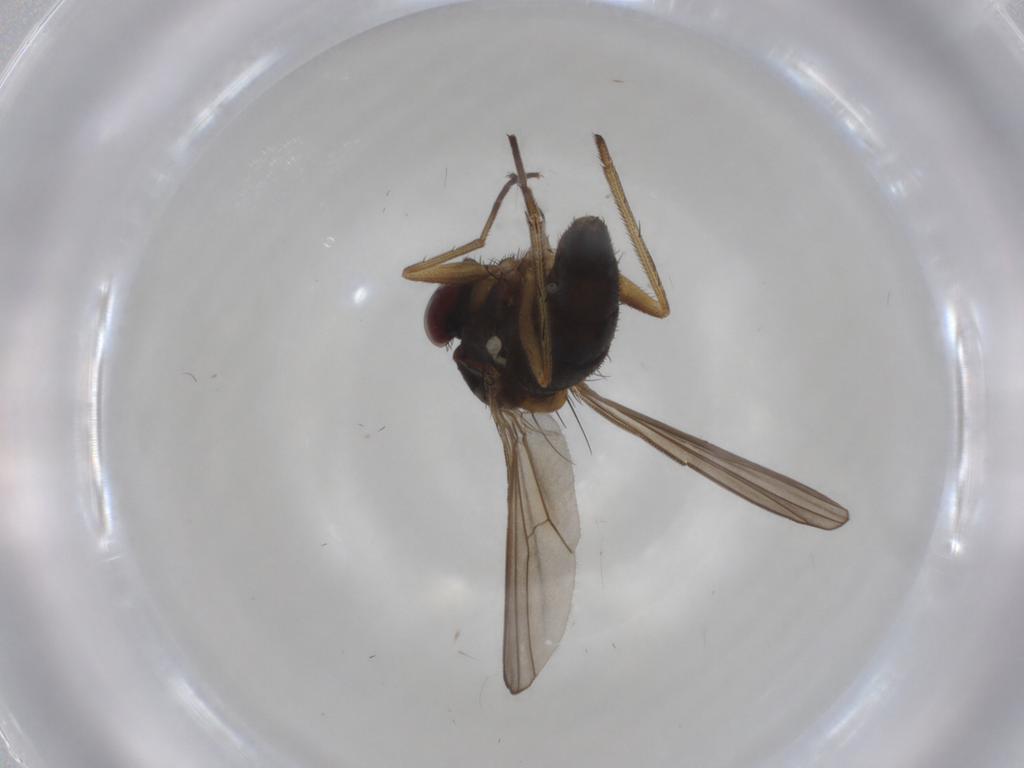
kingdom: Animalia
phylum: Arthropoda
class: Insecta
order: Diptera
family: Dolichopodidae
